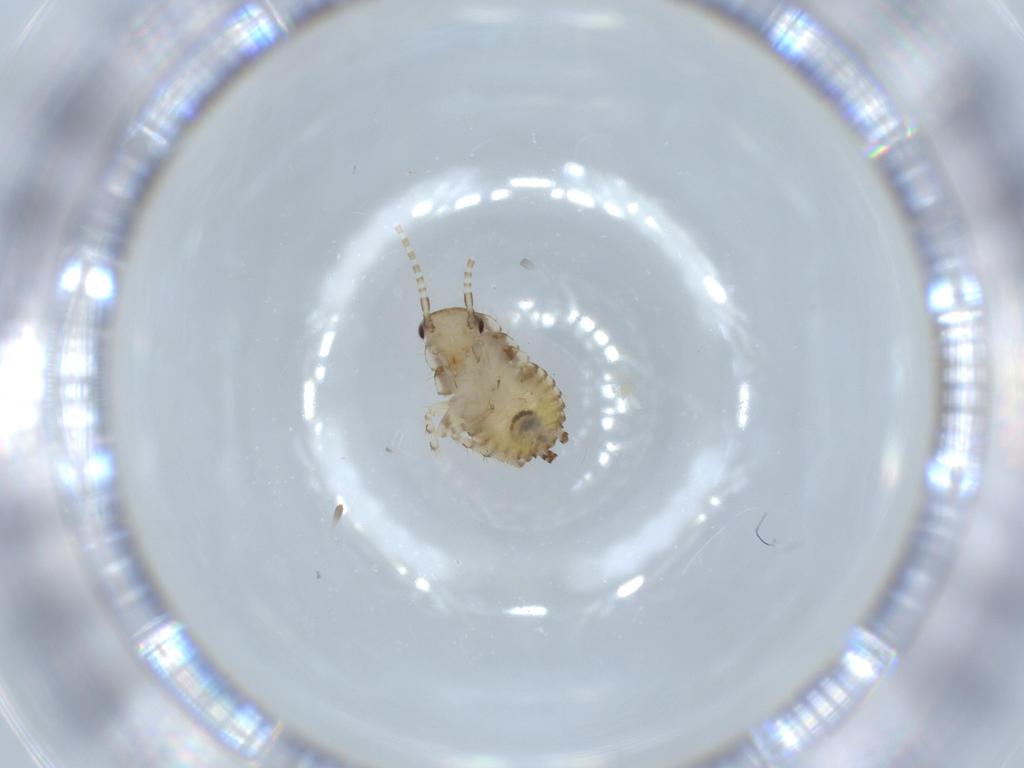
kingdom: Animalia
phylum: Arthropoda
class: Insecta
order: Blattodea
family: Ectobiidae
